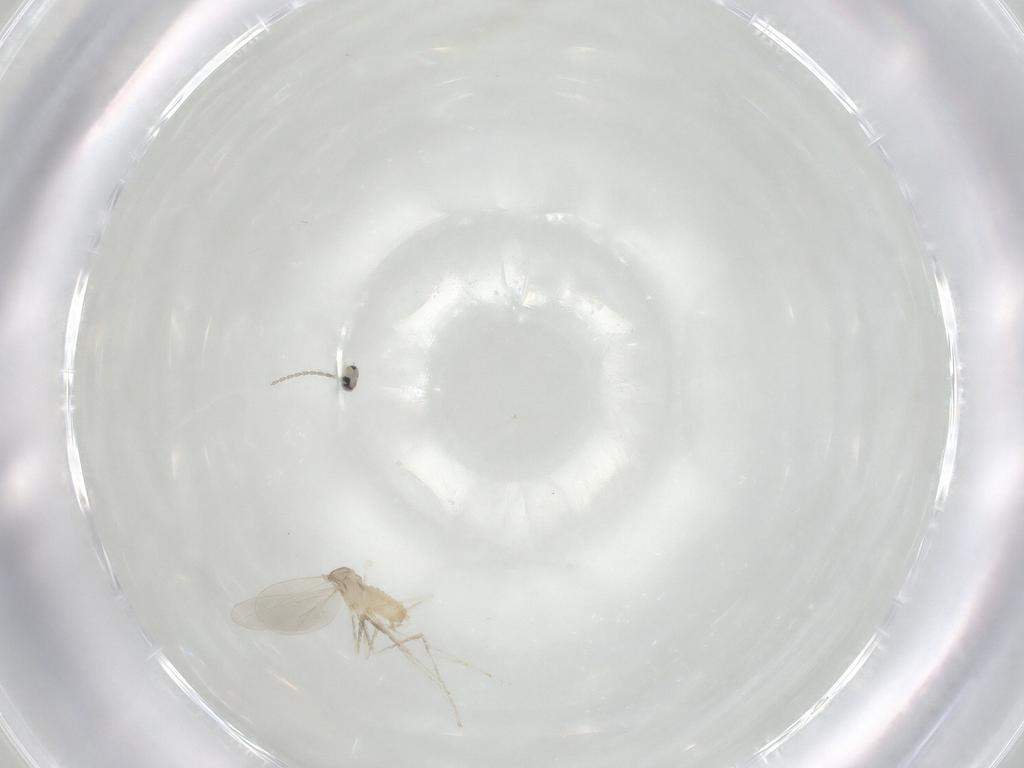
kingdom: Animalia
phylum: Arthropoda
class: Insecta
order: Diptera
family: Cecidomyiidae
